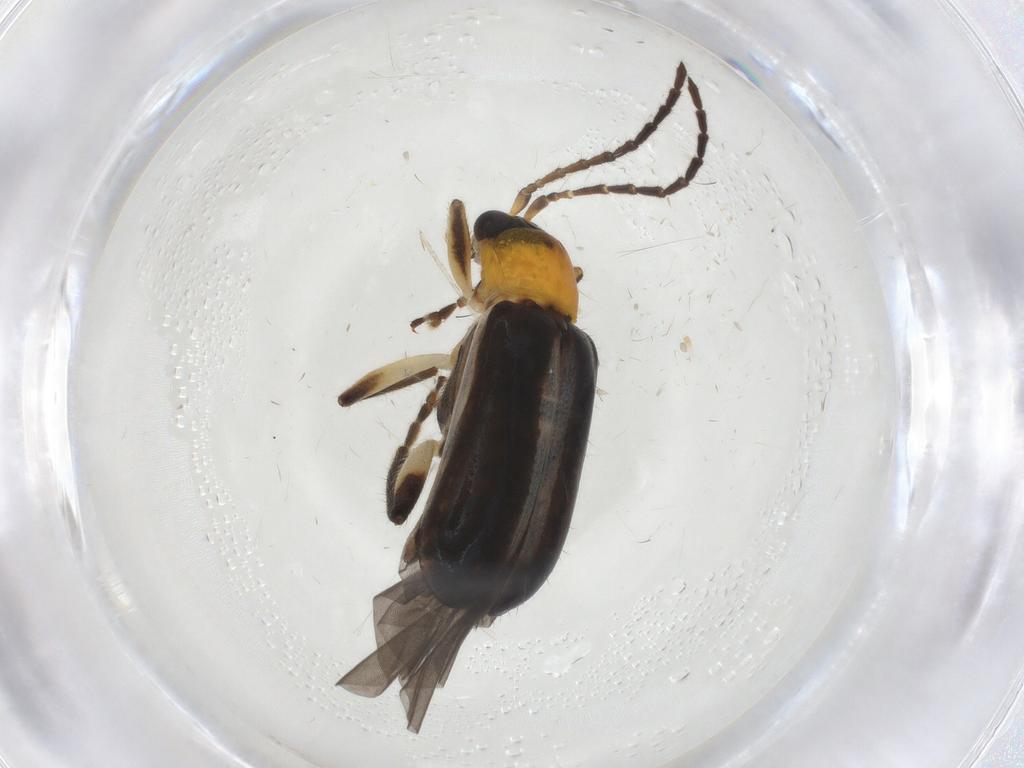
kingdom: Animalia
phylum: Arthropoda
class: Insecta
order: Coleoptera
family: Chrysomelidae
